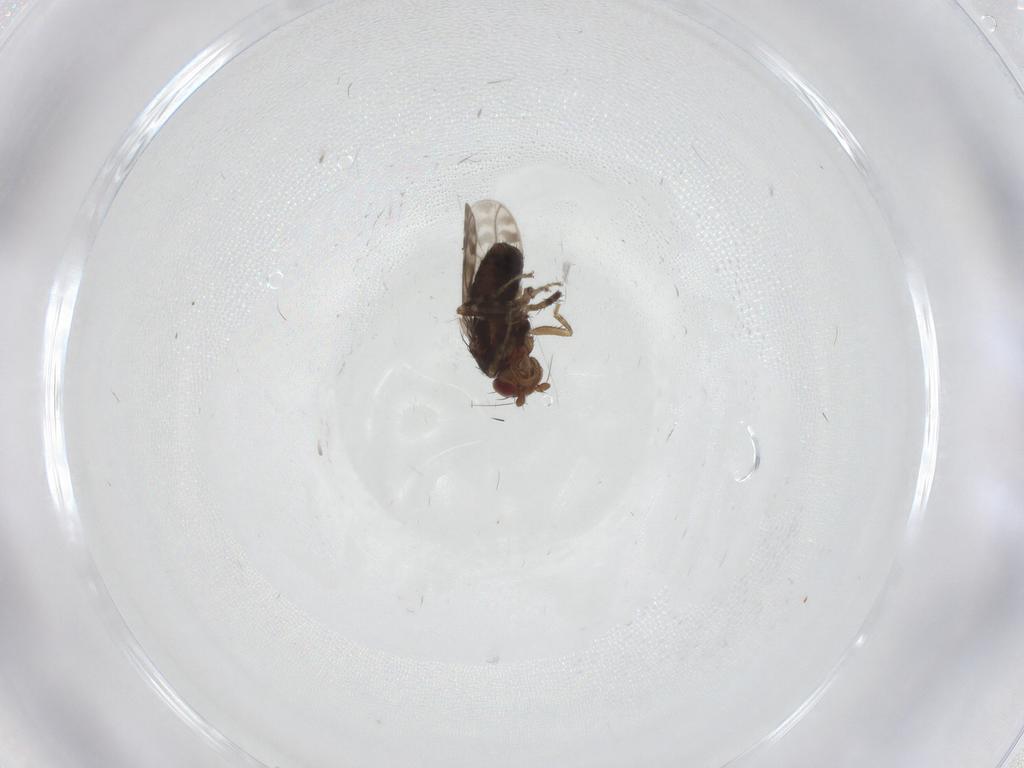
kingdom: Animalia
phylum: Arthropoda
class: Insecta
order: Diptera
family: Sphaeroceridae
